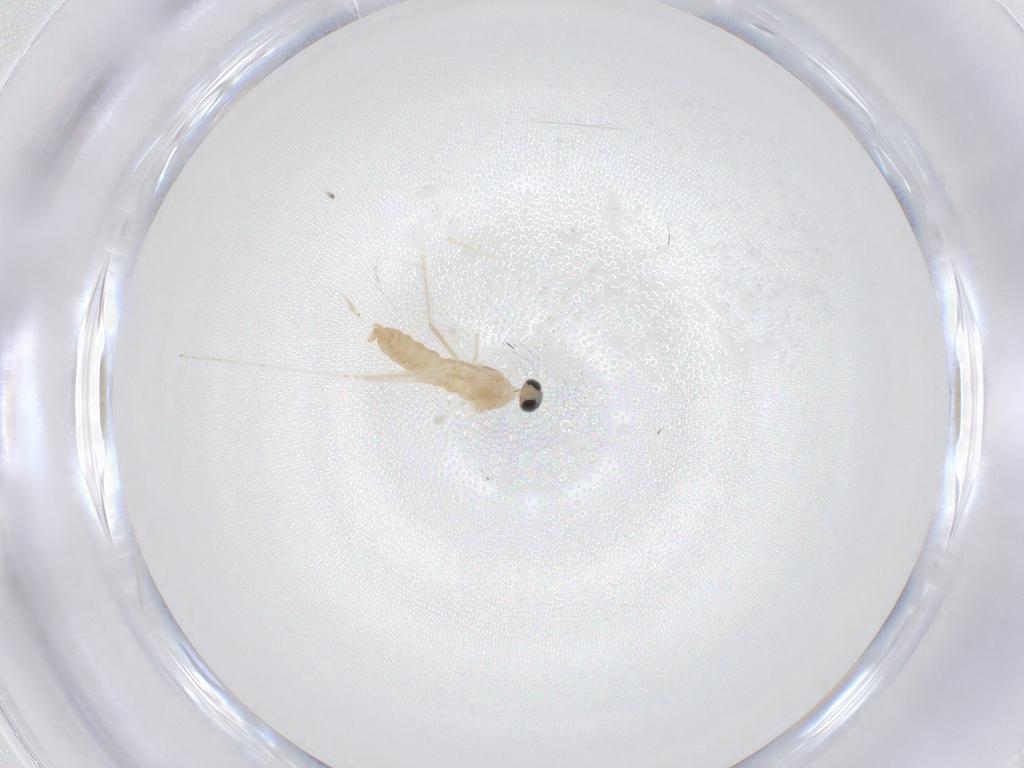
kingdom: Animalia
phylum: Arthropoda
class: Insecta
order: Diptera
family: Cecidomyiidae
